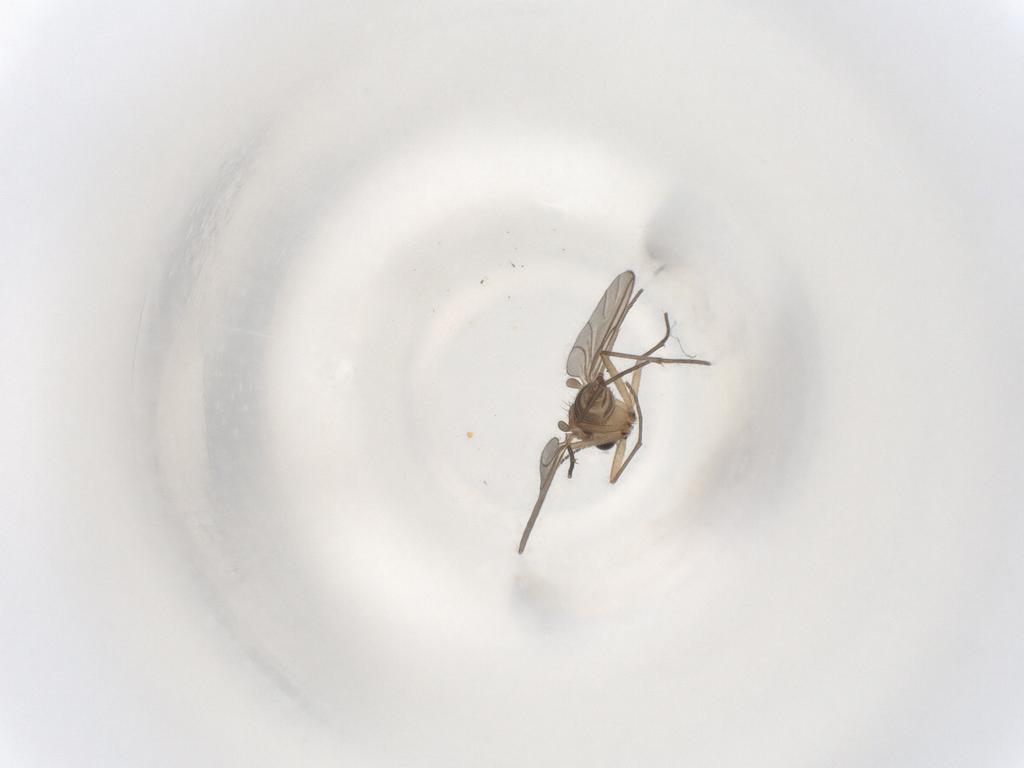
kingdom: Animalia
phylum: Arthropoda
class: Insecta
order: Diptera
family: Sciaridae
